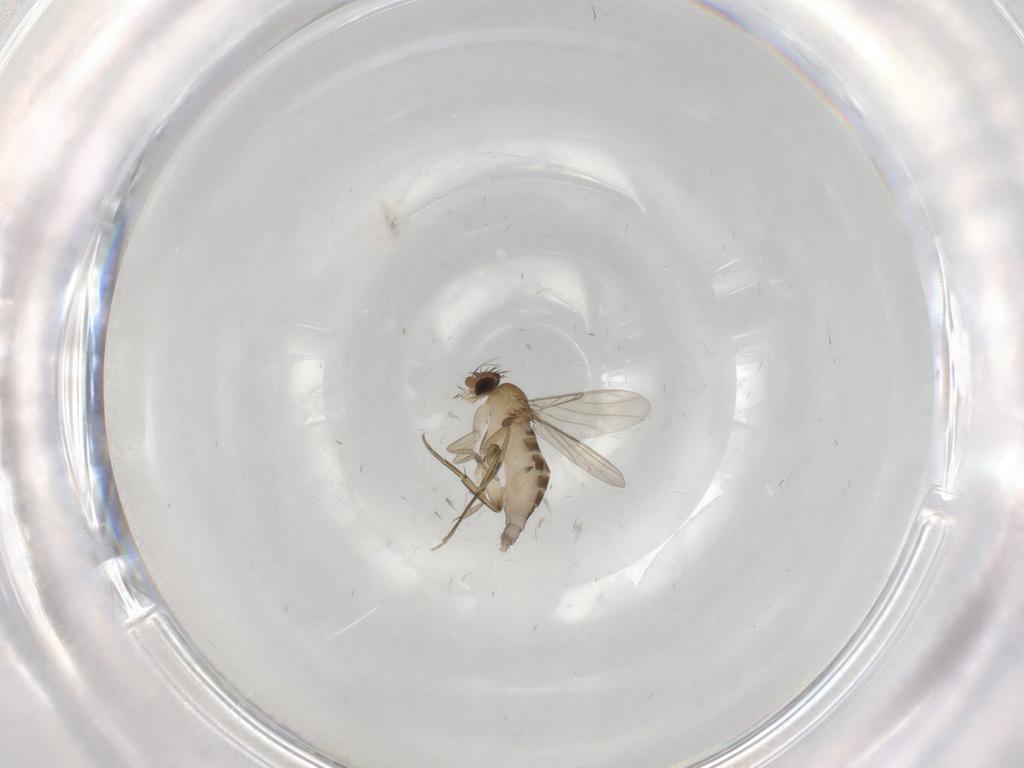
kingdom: Animalia
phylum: Arthropoda
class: Insecta
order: Diptera
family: Phoridae
